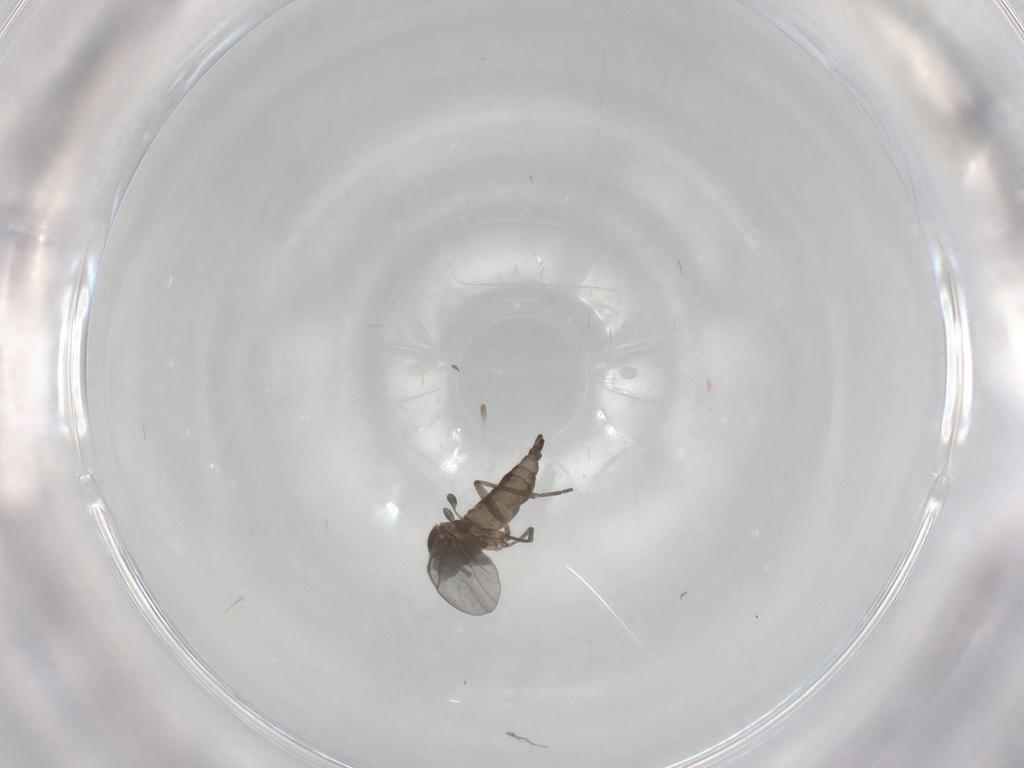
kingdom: Animalia
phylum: Arthropoda
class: Insecta
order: Diptera
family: Sciaridae
